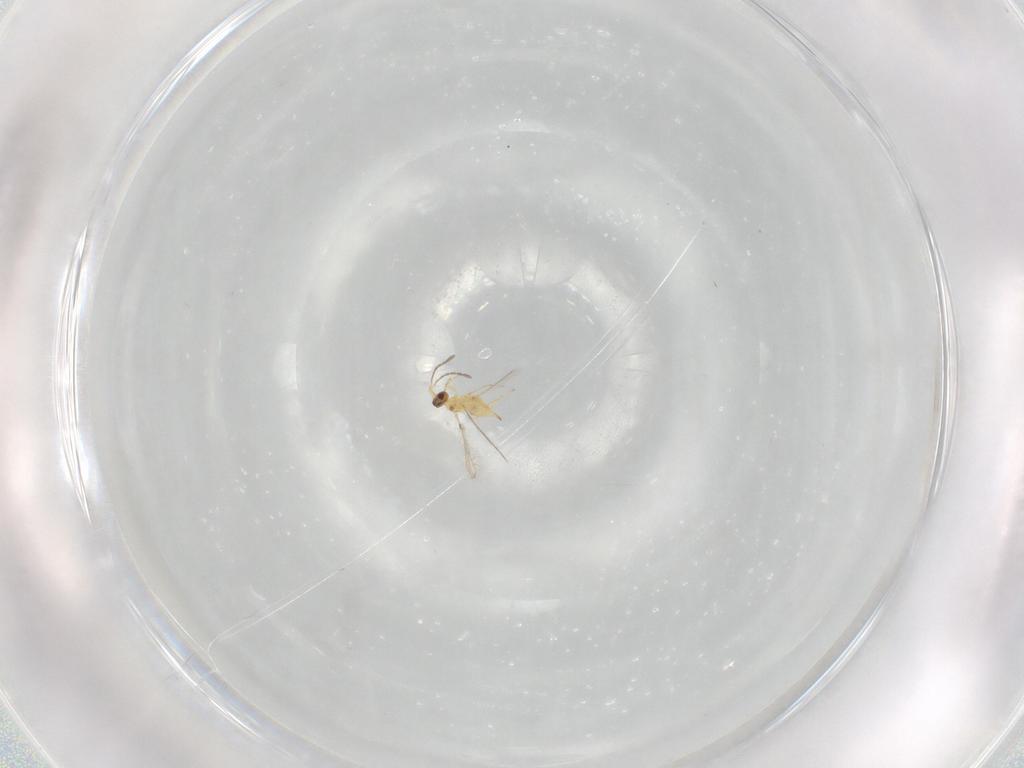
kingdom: Animalia
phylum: Arthropoda
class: Insecta
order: Hymenoptera
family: Mymaridae
